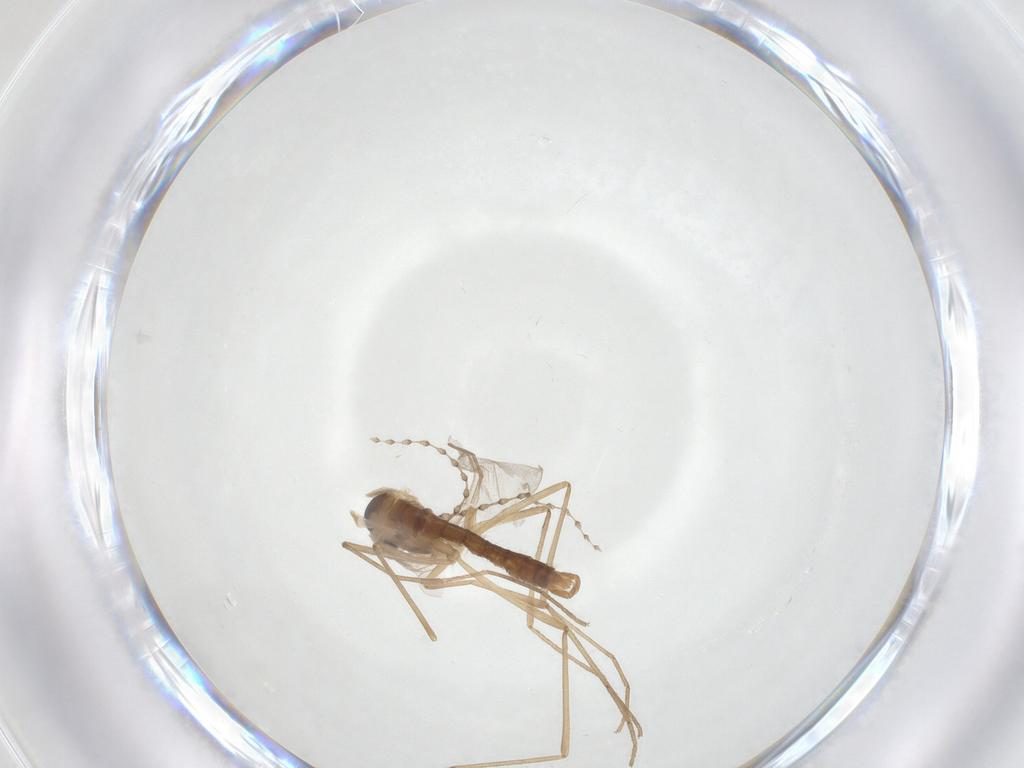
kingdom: Animalia
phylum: Arthropoda
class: Insecta
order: Diptera
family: Cecidomyiidae
